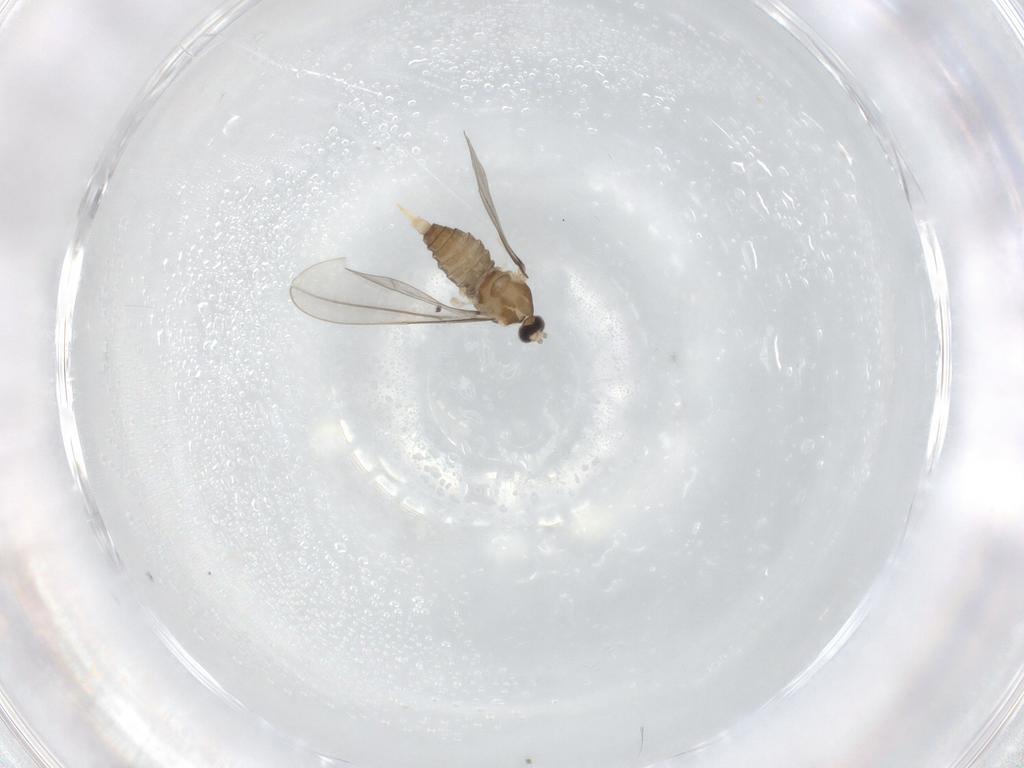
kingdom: Animalia
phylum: Arthropoda
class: Insecta
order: Diptera
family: Cecidomyiidae
